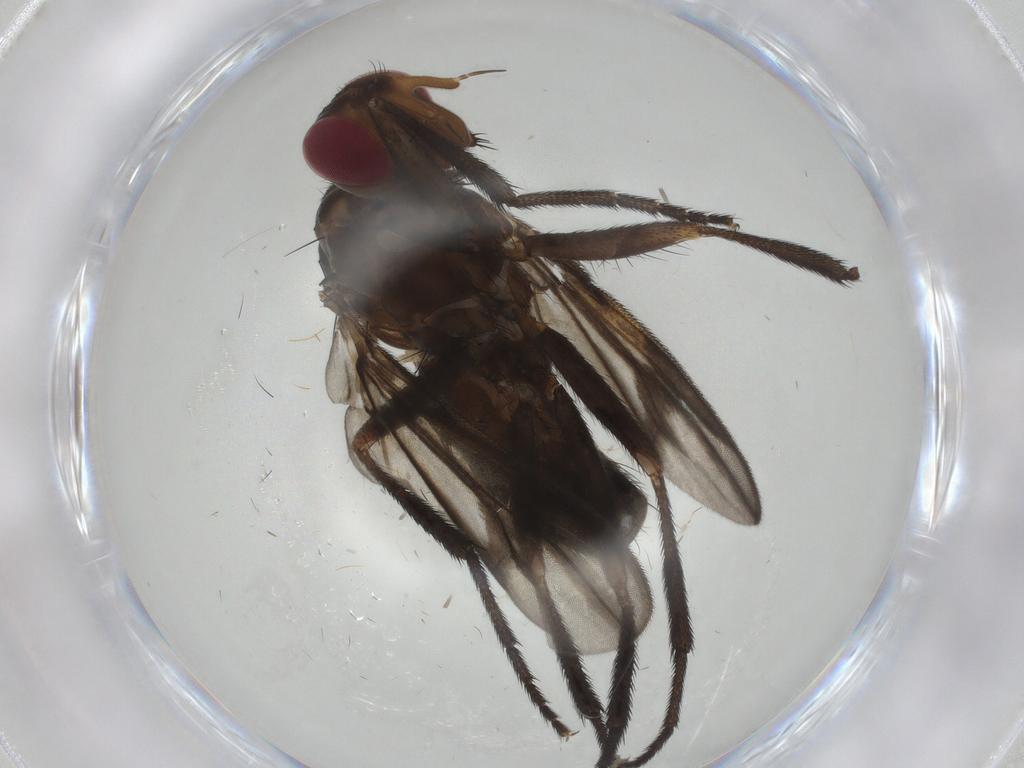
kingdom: Animalia
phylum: Arthropoda
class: Insecta
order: Diptera
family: Calliphoridae
